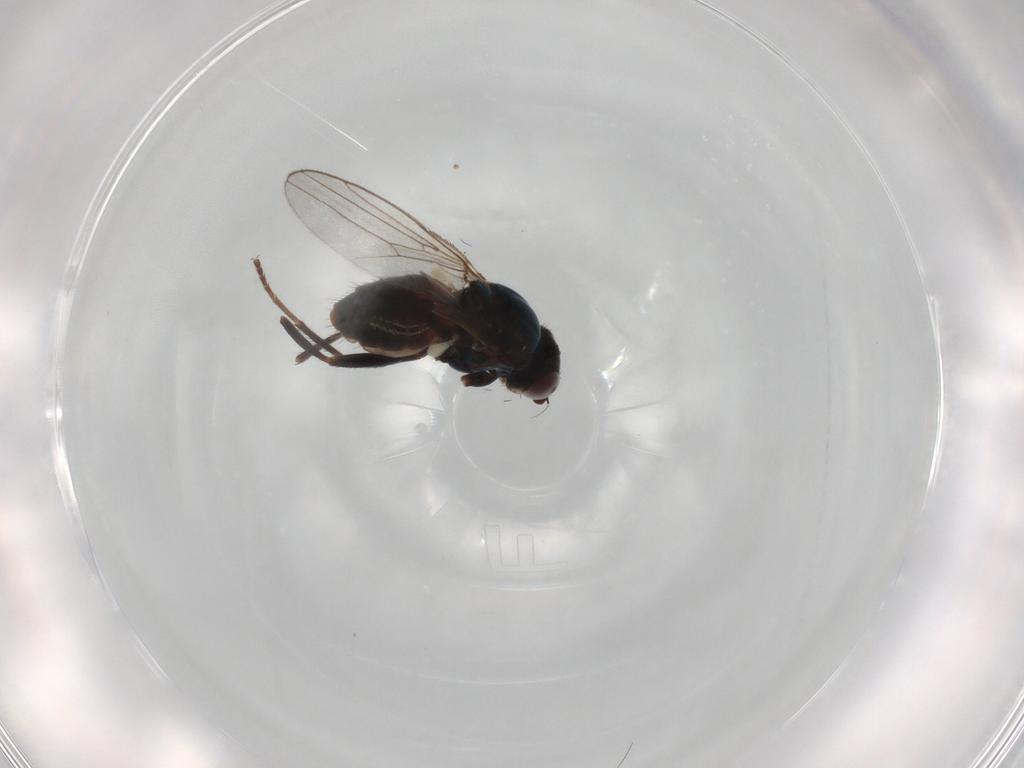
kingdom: Animalia
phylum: Arthropoda
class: Insecta
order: Diptera
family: Chloropidae
